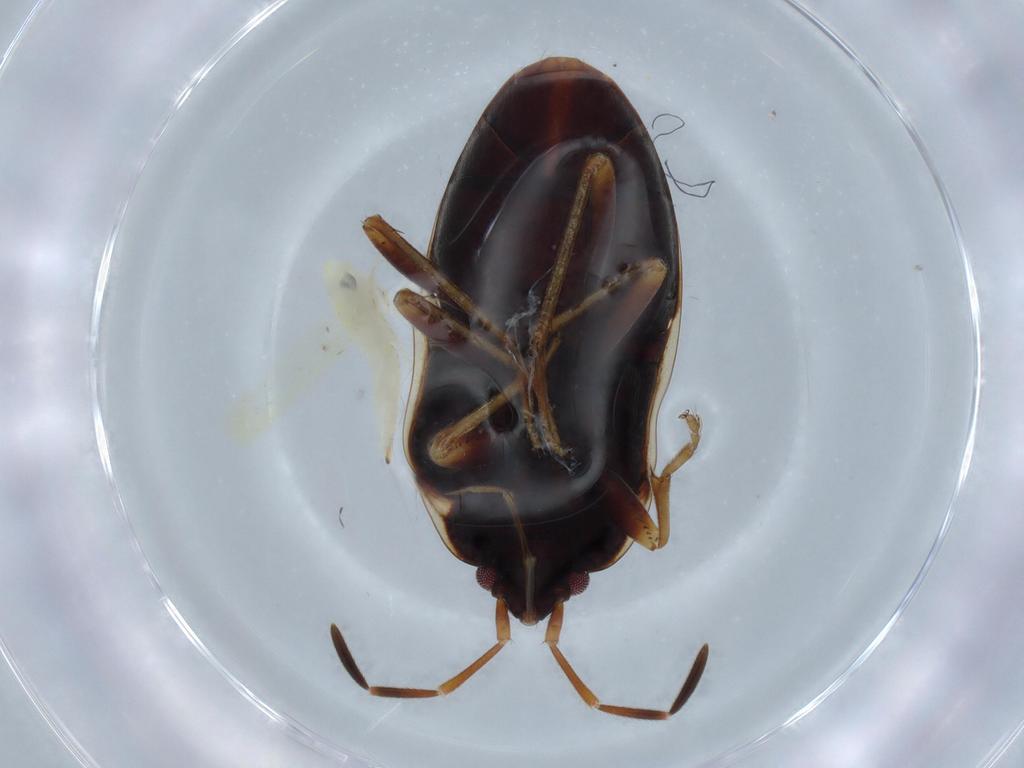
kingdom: Animalia
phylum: Arthropoda
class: Insecta
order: Hemiptera
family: Cicadellidae
